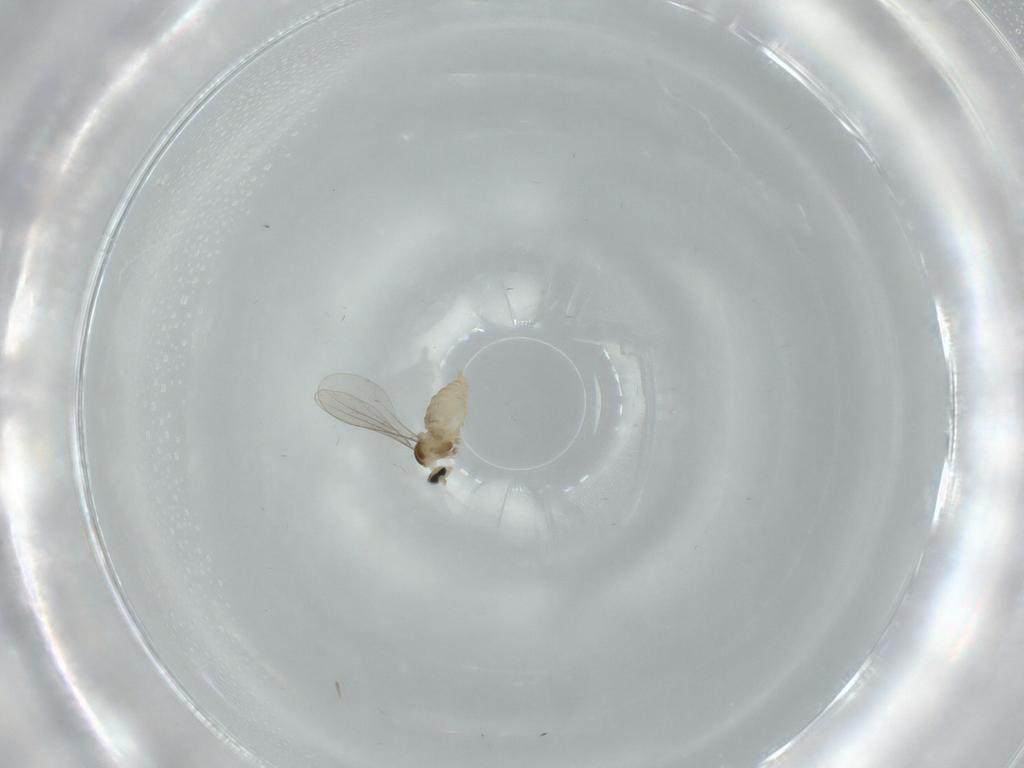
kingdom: Animalia
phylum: Arthropoda
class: Insecta
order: Diptera
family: Cecidomyiidae
